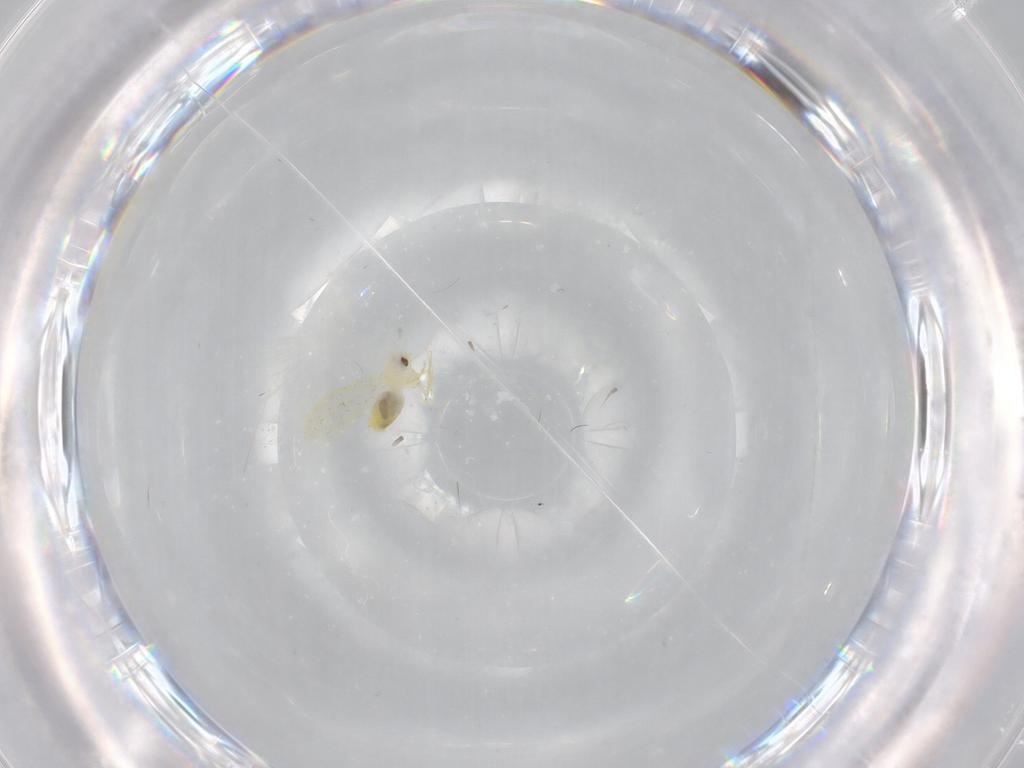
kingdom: Animalia
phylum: Arthropoda
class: Insecta
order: Hemiptera
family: Aleyrodidae
